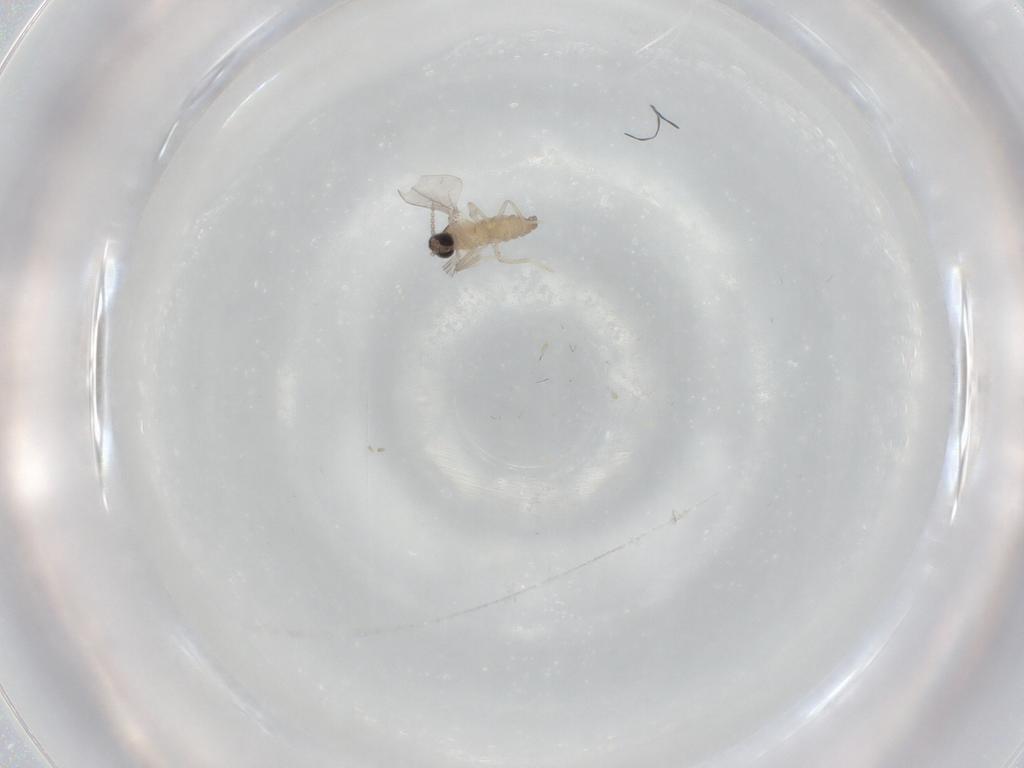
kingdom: Animalia
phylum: Arthropoda
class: Insecta
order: Diptera
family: Cecidomyiidae
